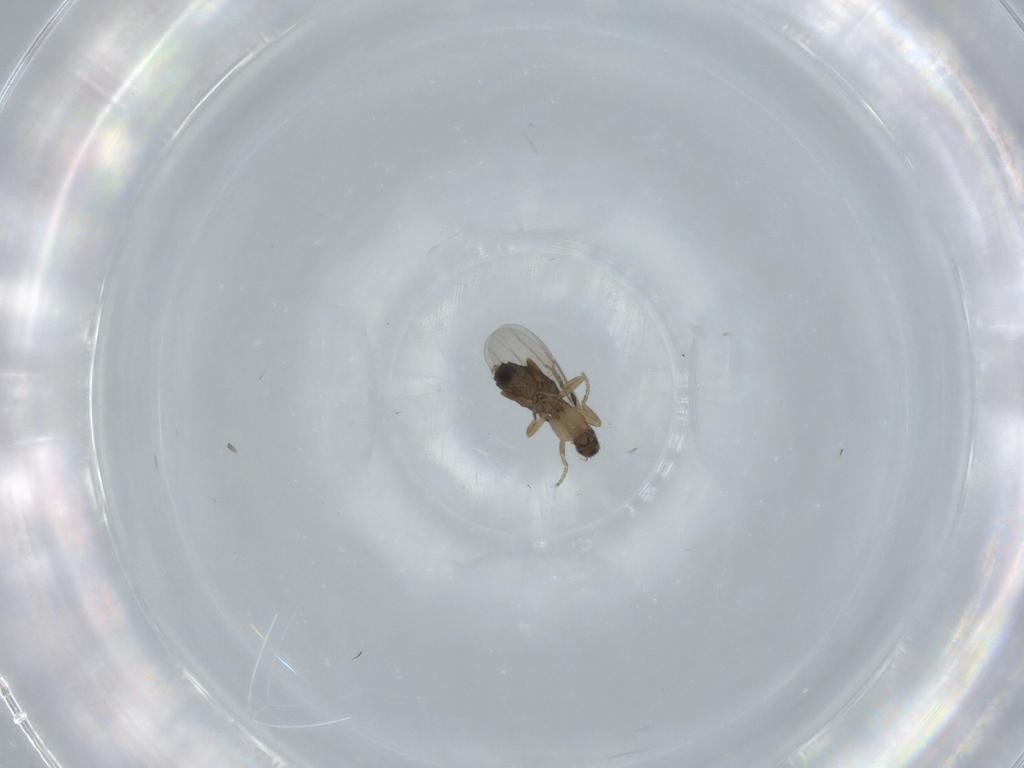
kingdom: Animalia
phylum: Arthropoda
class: Insecta
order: Diptera
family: Phoridae
